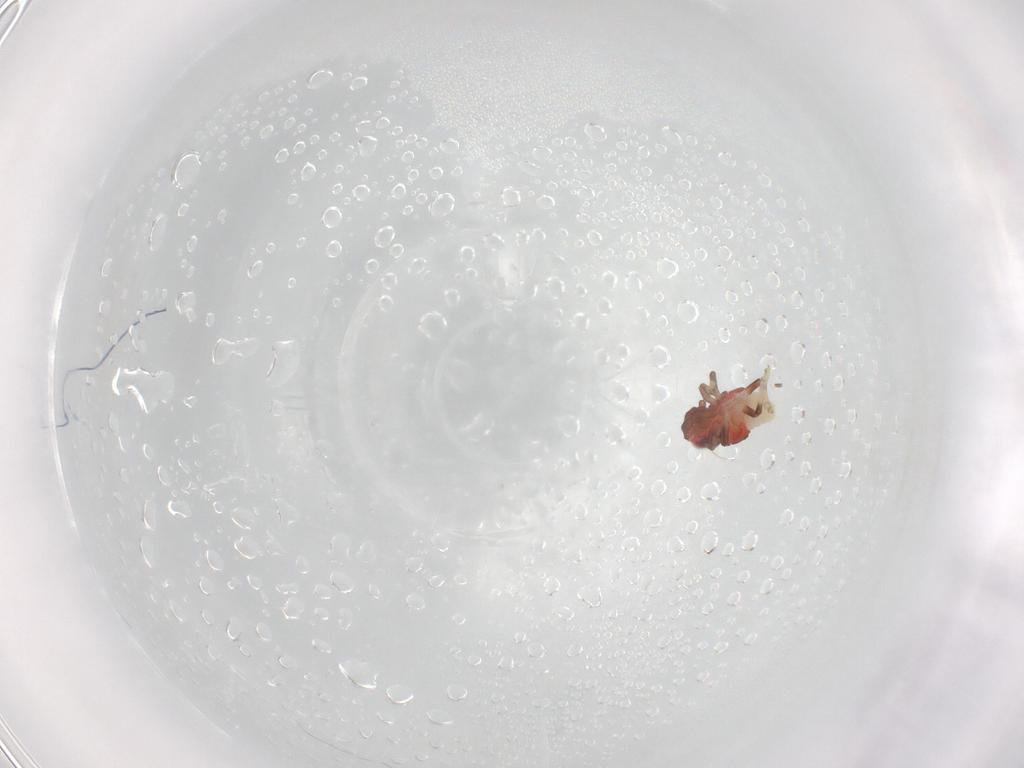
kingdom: Animalia
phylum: Arthropoda
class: Insecta
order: Hemiptera
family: Nogodinidae
